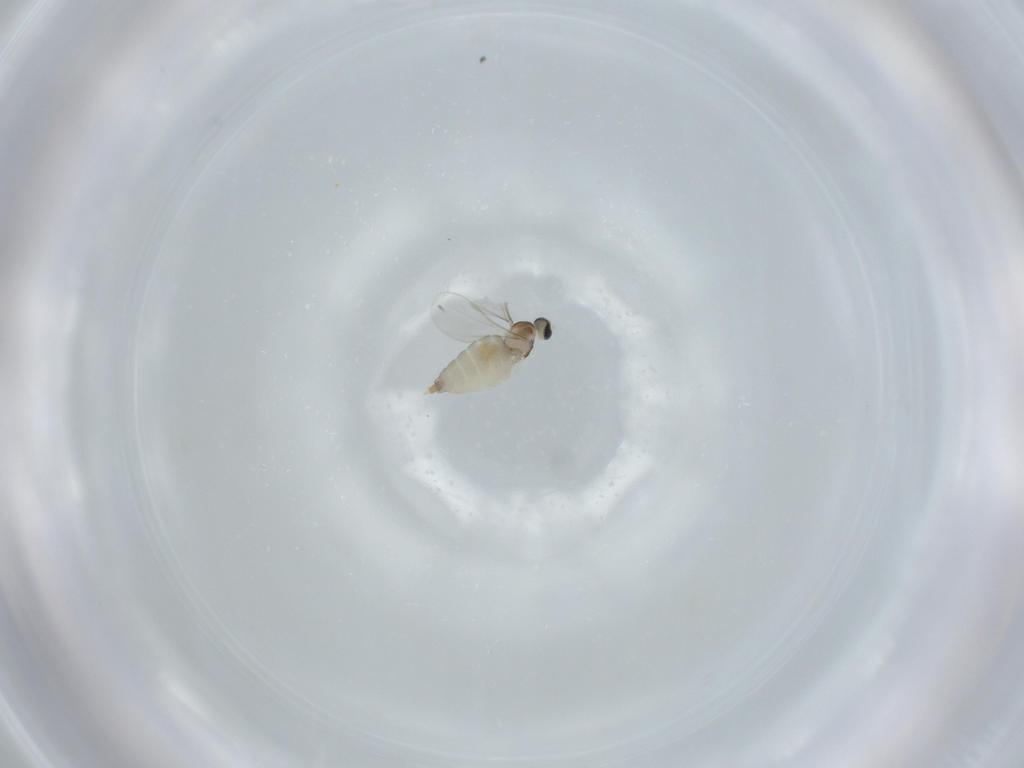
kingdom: Animalia
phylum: Arthropoda
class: Insecta
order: Diptera
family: Cecidomyiidae
